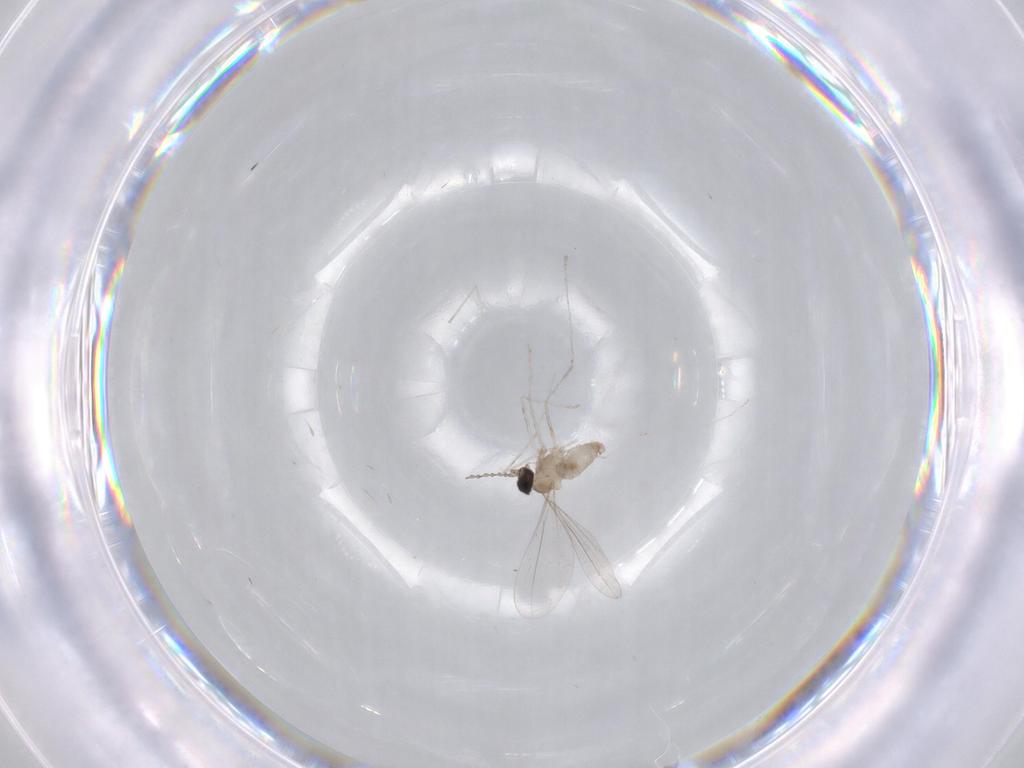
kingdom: Animalia
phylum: Arthropoda
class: Insecta
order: Diptera
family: Cecidomyiidae
